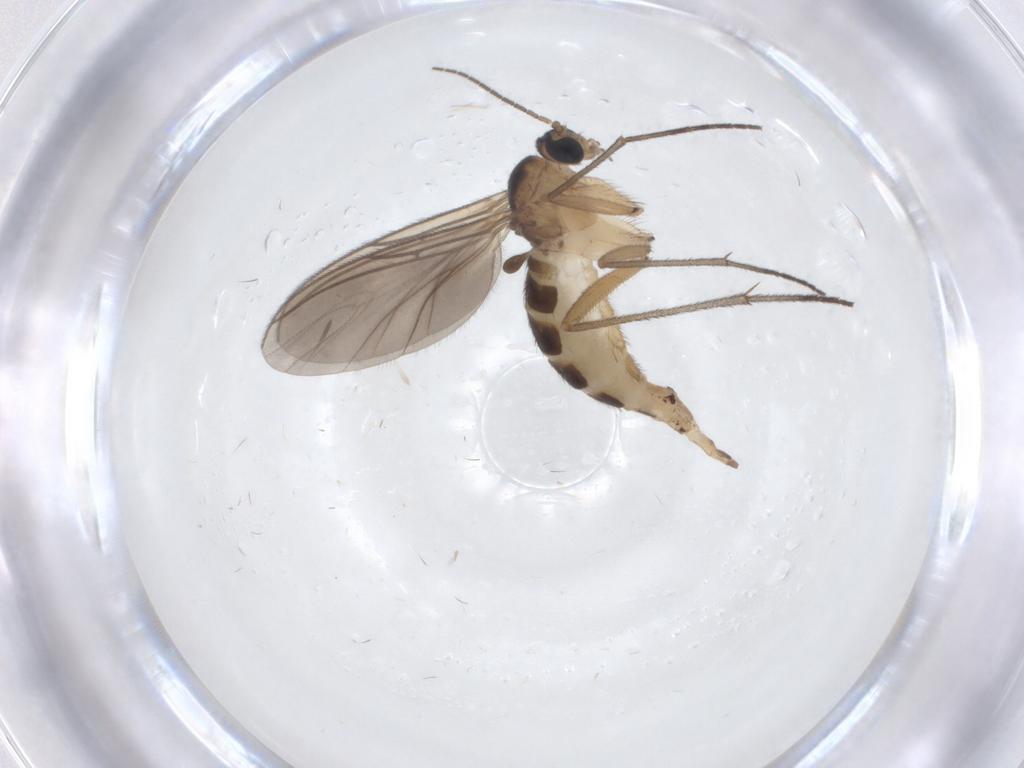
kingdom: Animalia
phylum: Arthropoda
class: Insecta
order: Diptera
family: Sciaridae
